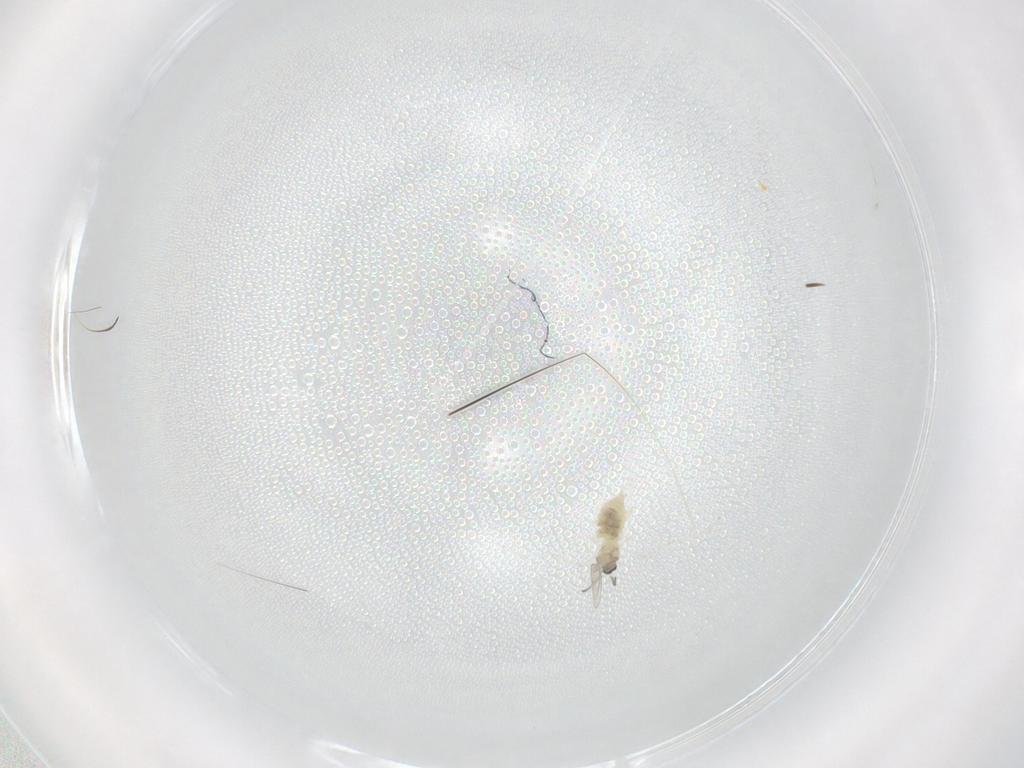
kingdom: Animalia
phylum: Arthropoda
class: Insecta
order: Diptera
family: Cecidomyiidae
